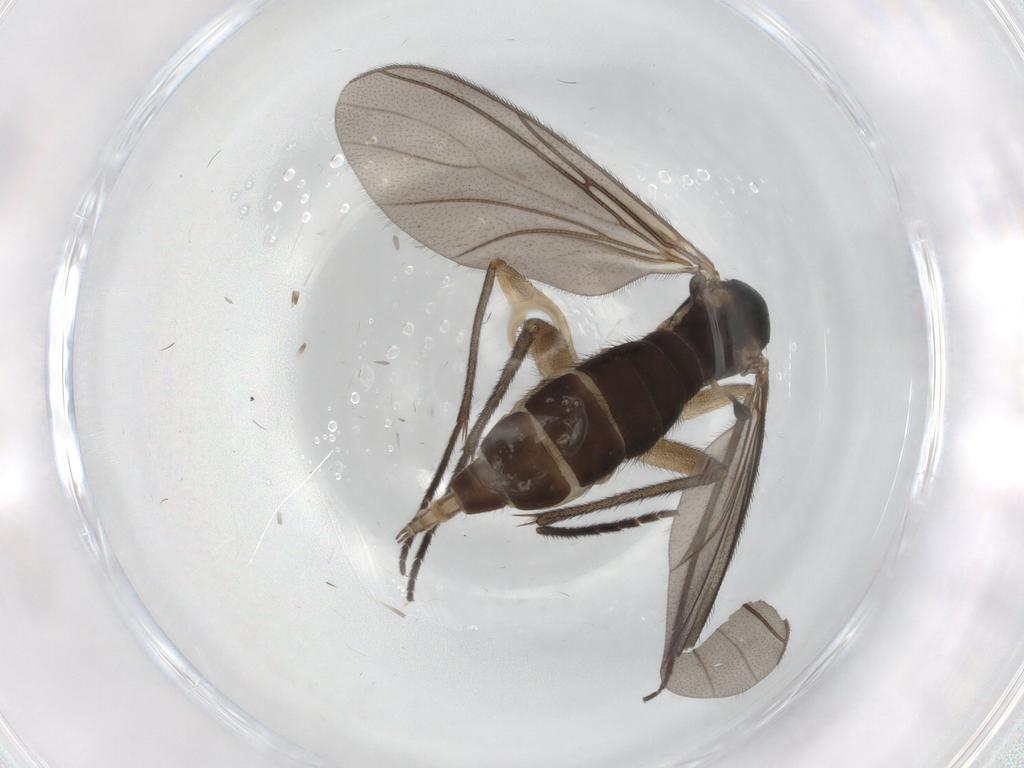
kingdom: Animalia
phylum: Arthropoda
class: Insecta
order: Diptera
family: Sciaridae
